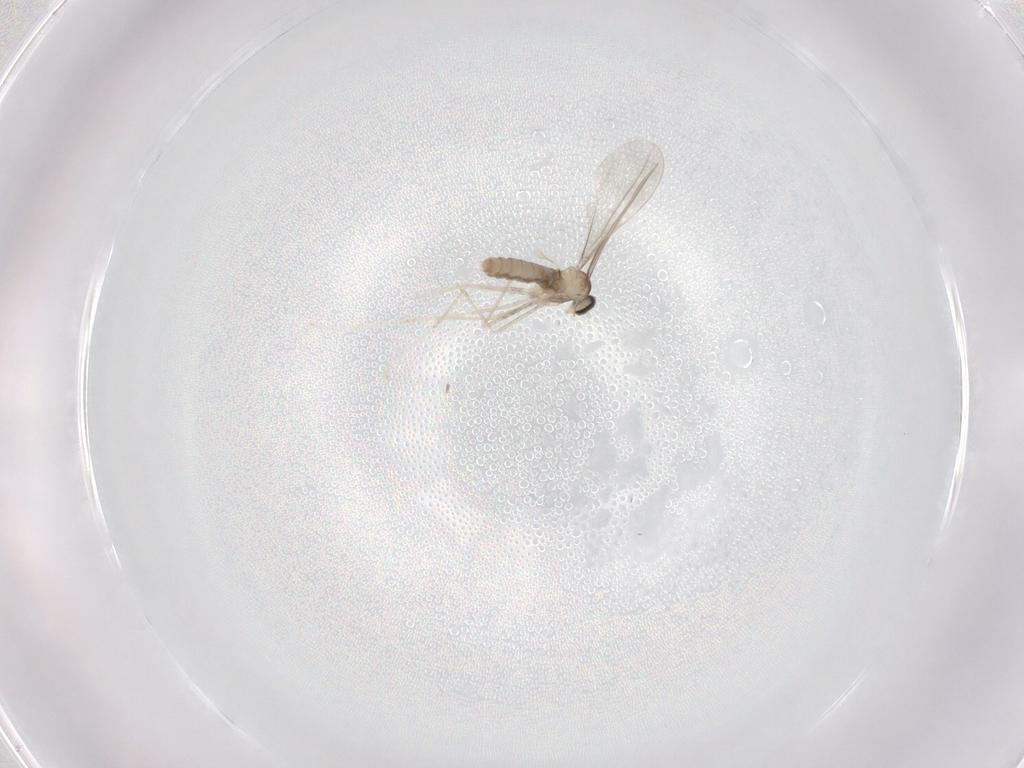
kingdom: Animalia
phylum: Arthropoda
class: Insecta
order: Diptera
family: Cecidomyiidae
